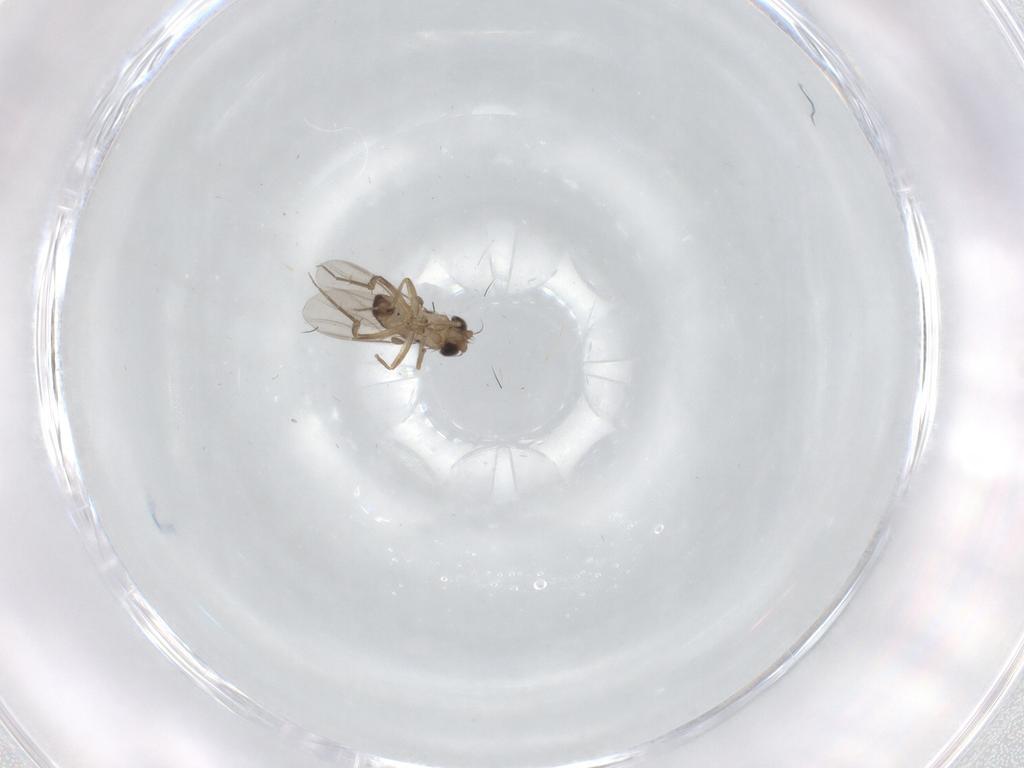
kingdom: Animalia
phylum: Arthropoda
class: Insecta
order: Diptera
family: Phoridae
